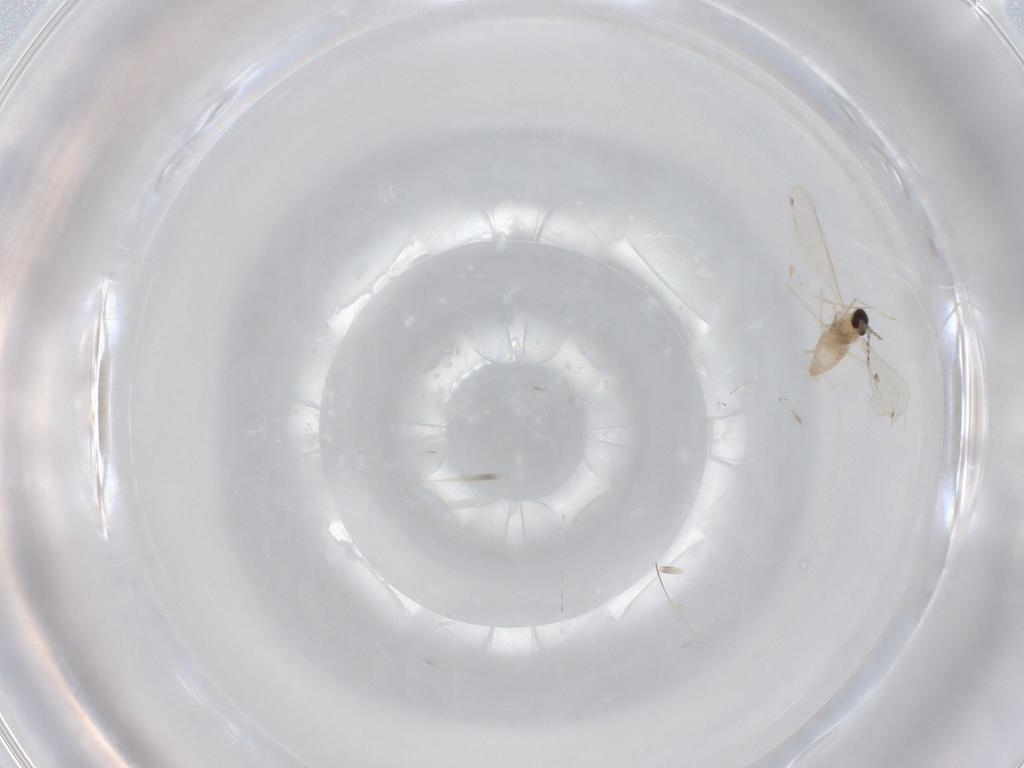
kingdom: Animalia
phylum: Arthropoda
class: Insecta
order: Diptera
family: Cecidomyiidae
